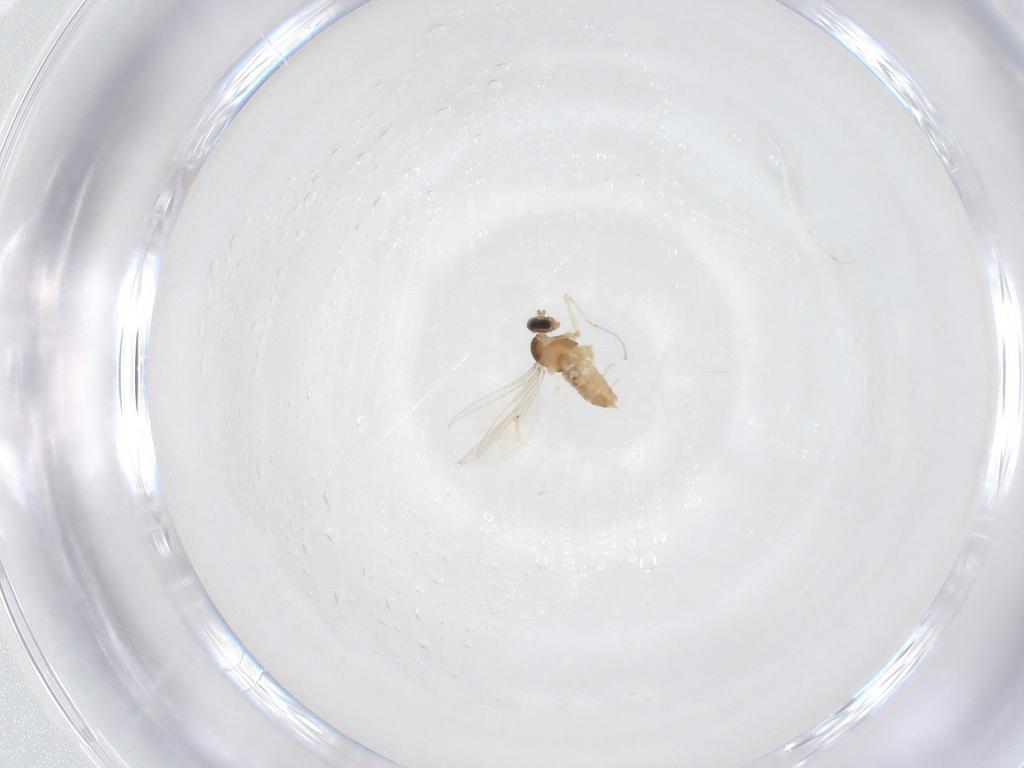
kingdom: Animalia
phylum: Arthropoda
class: Insecta
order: Diptera
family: Cecidomyiidae
